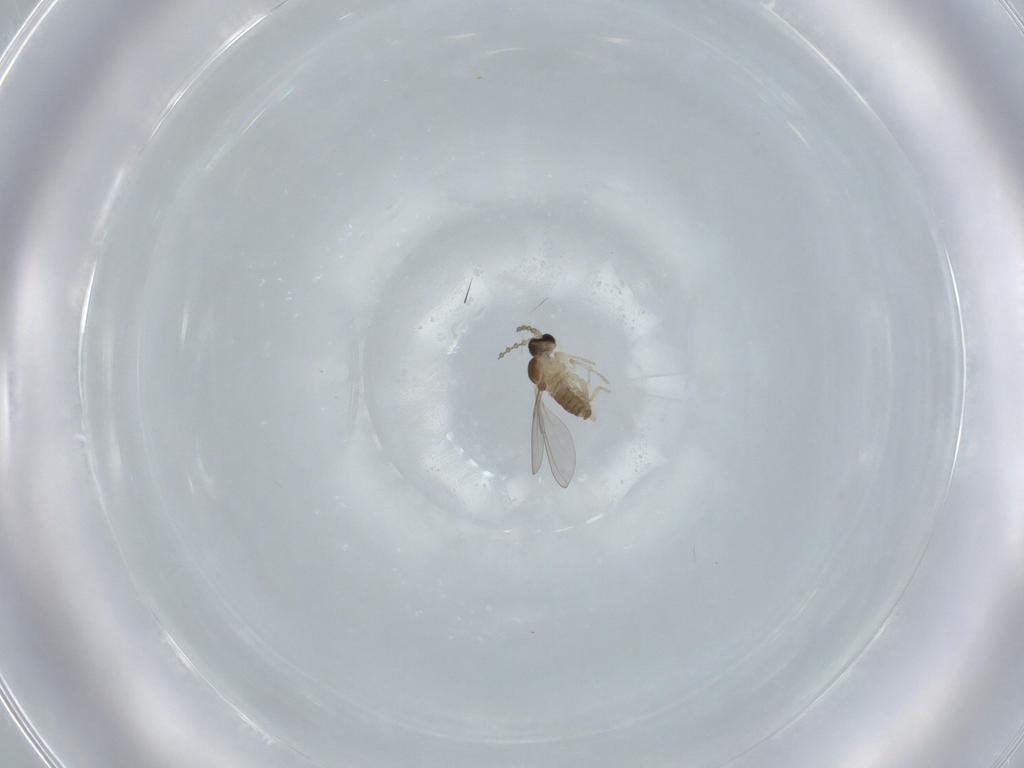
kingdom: Animalia
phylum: Arthropoda
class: Insecta
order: Diptera
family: Cecidomyiidae
